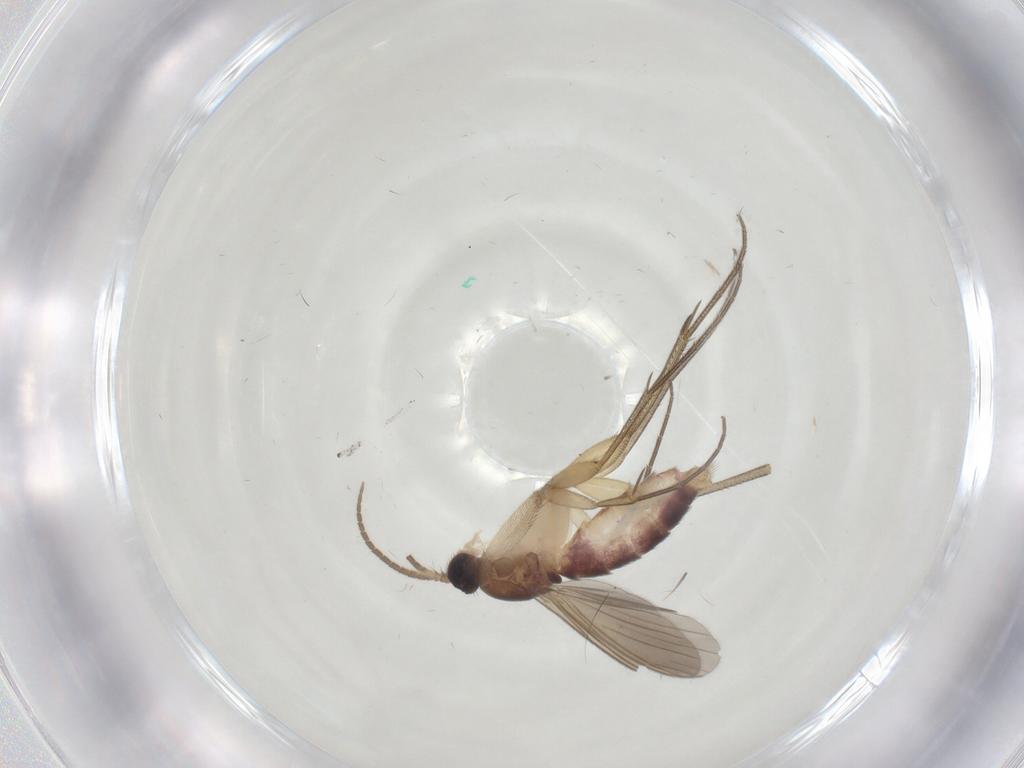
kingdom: Animalia
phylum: Arthropoda
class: Insecta
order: Diptera
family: Mycetophilidae
